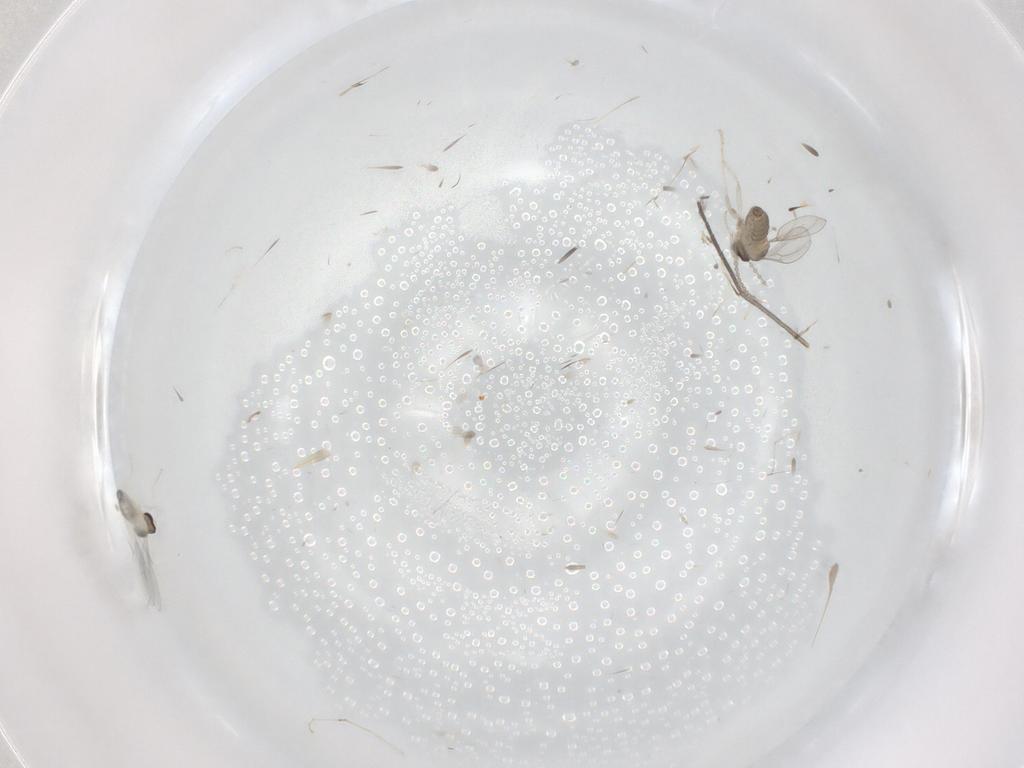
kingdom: Animalia
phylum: Arthropoda
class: Insecta
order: Diptera
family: Cecidomyiidae
